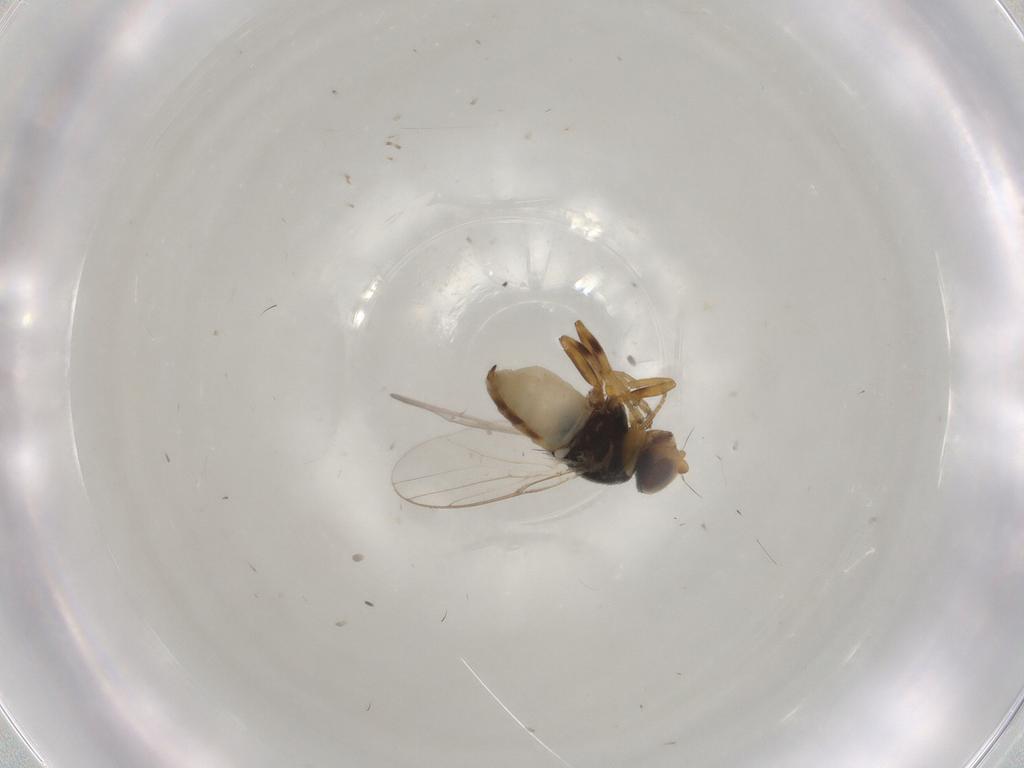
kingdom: Animalia
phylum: Arthropoda
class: Insecta
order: Diptera
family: Chloropidae
